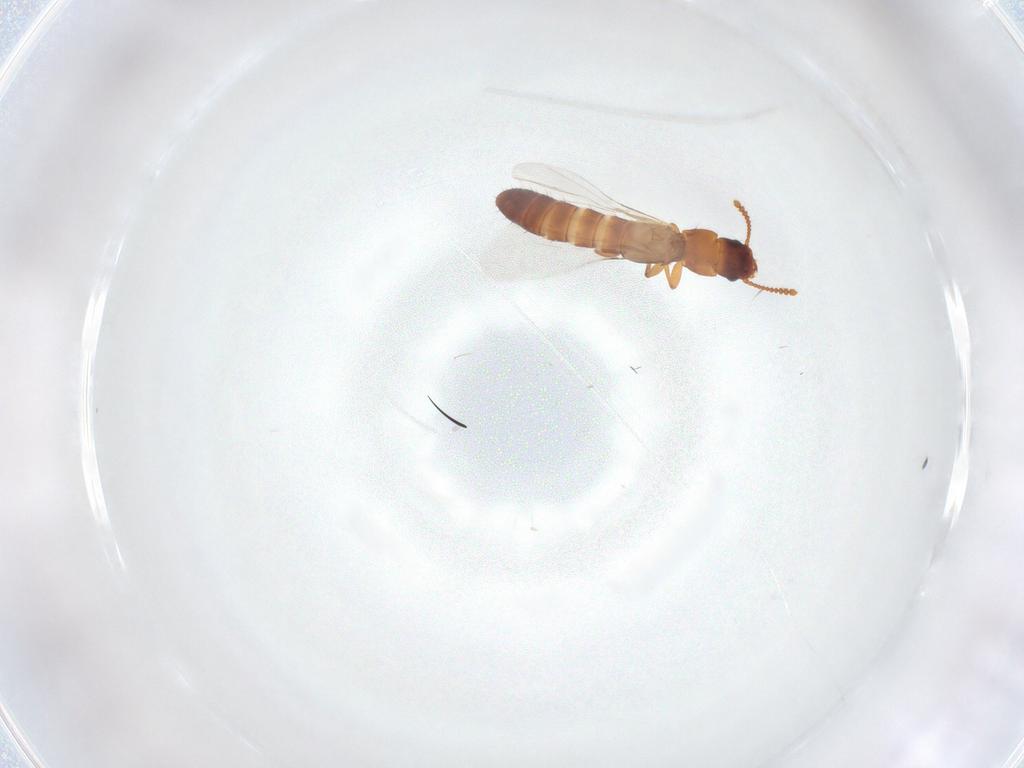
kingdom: Animalia
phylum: Arthropoda
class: Insecta
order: Coleoptera
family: Staphylinidae
